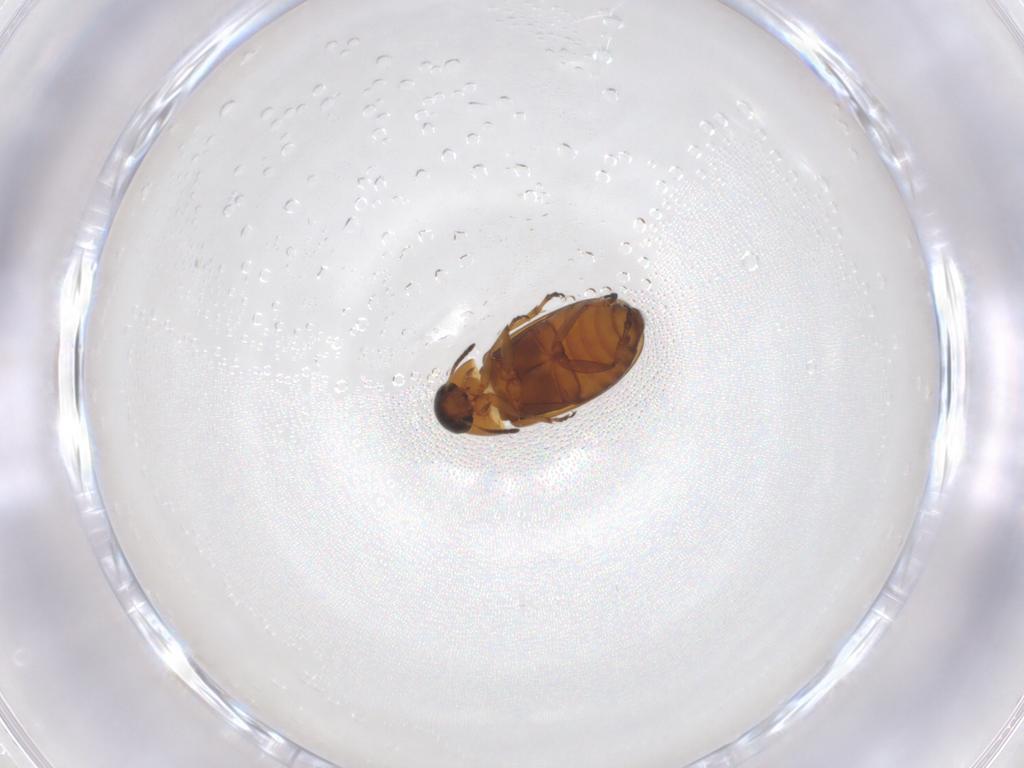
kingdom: Animalia
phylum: Arthropoda
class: Insecta
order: Coleoptera
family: Scraptiidae
